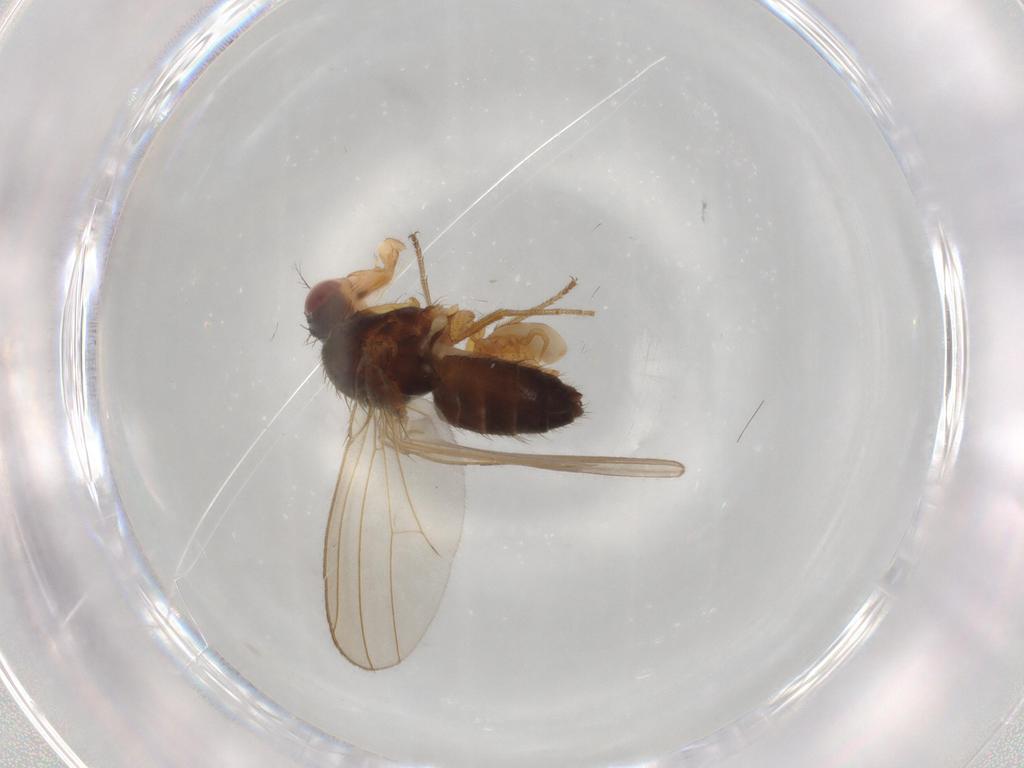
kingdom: Animalia
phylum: Arthropoda
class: Insecta
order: Diptera
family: Drosophilidae
